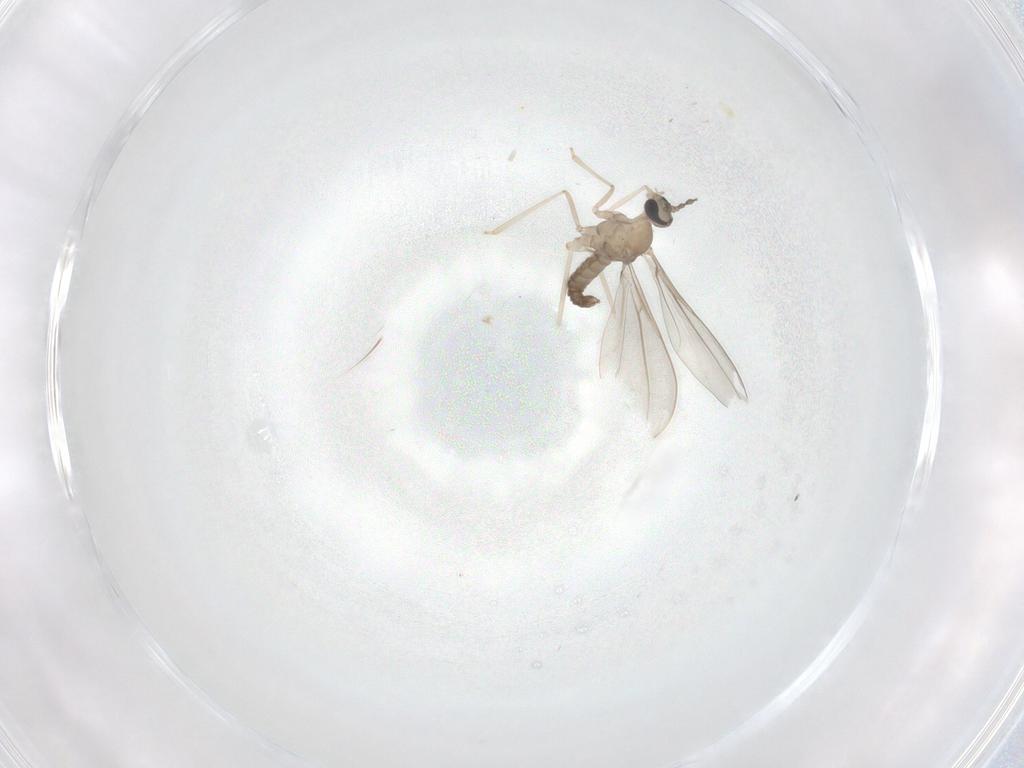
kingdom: Animalia
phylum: Arthropoda
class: Insecta
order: Diptera
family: Cecidomyiidae
